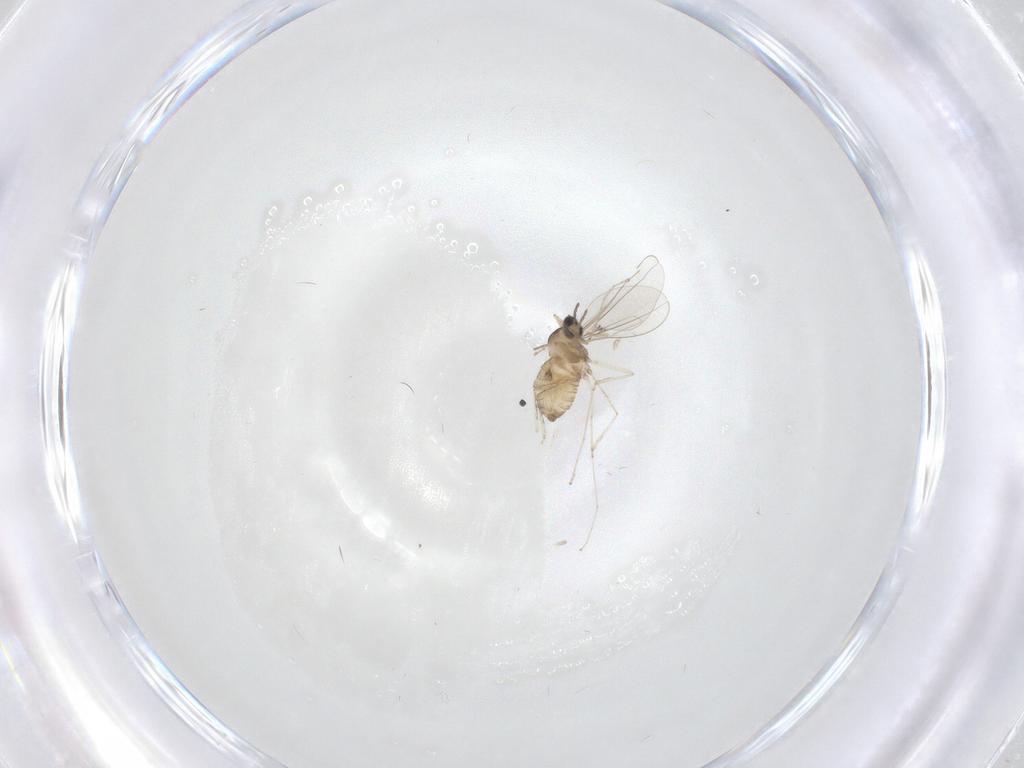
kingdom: Animalia
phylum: Arthropoda
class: Insecta
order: Diptera
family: Cecidomyiidae
